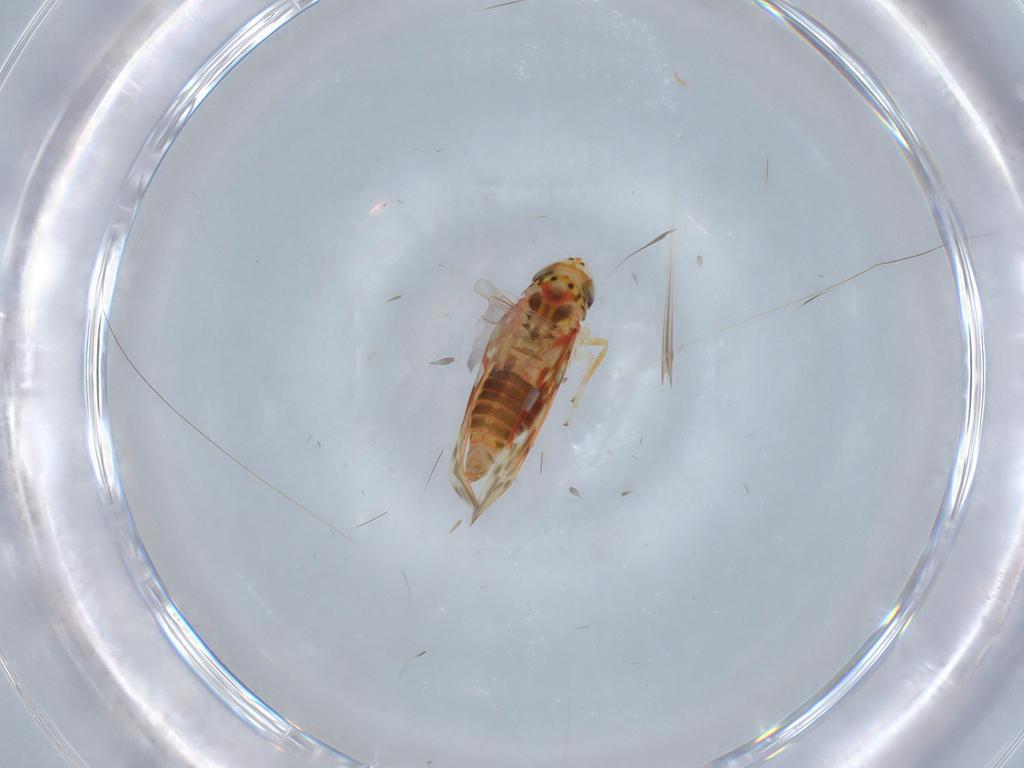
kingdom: Animalia
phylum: Arthropoda
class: Insecta
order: Hemiptera
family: Cicadellidae
